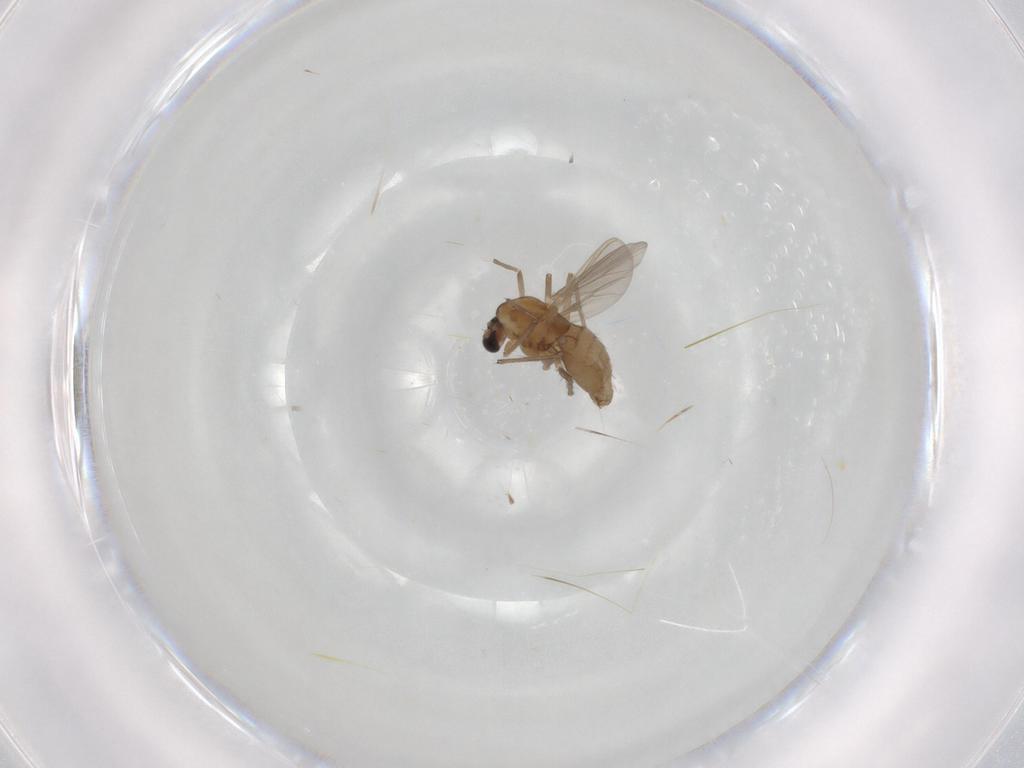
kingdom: Animalia
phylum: Arthropoda
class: Insecta
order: Diptera
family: Chironomidae
